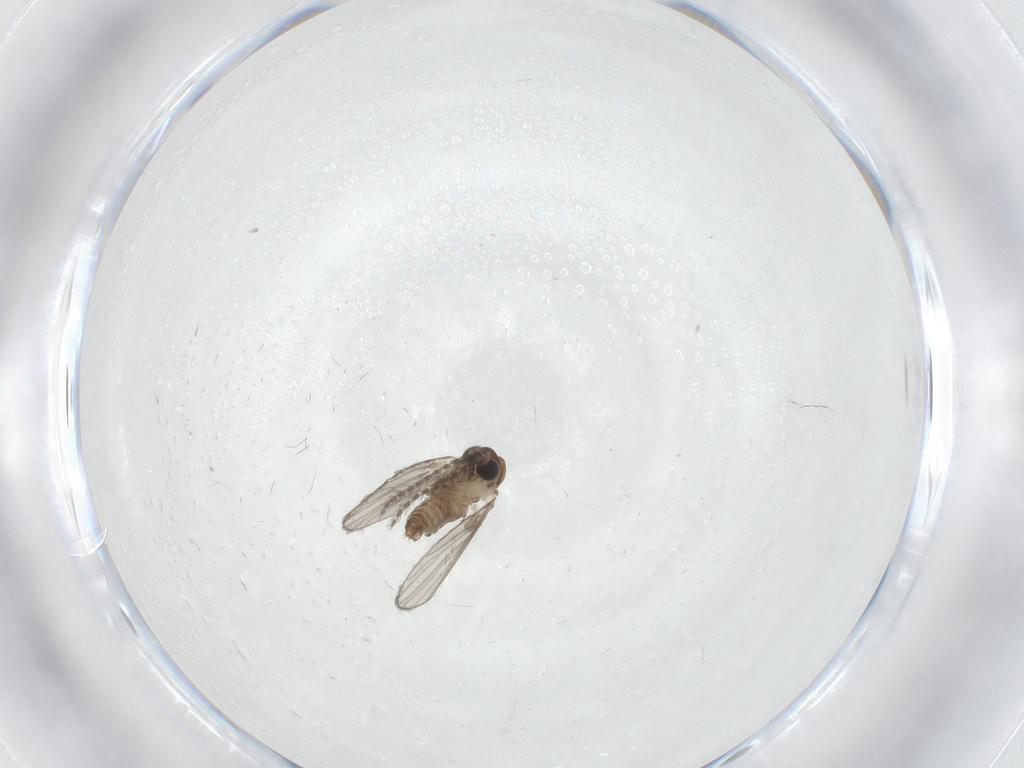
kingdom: Animalia
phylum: Arthropoda
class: Insecta
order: Diptera
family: Psychodidae
